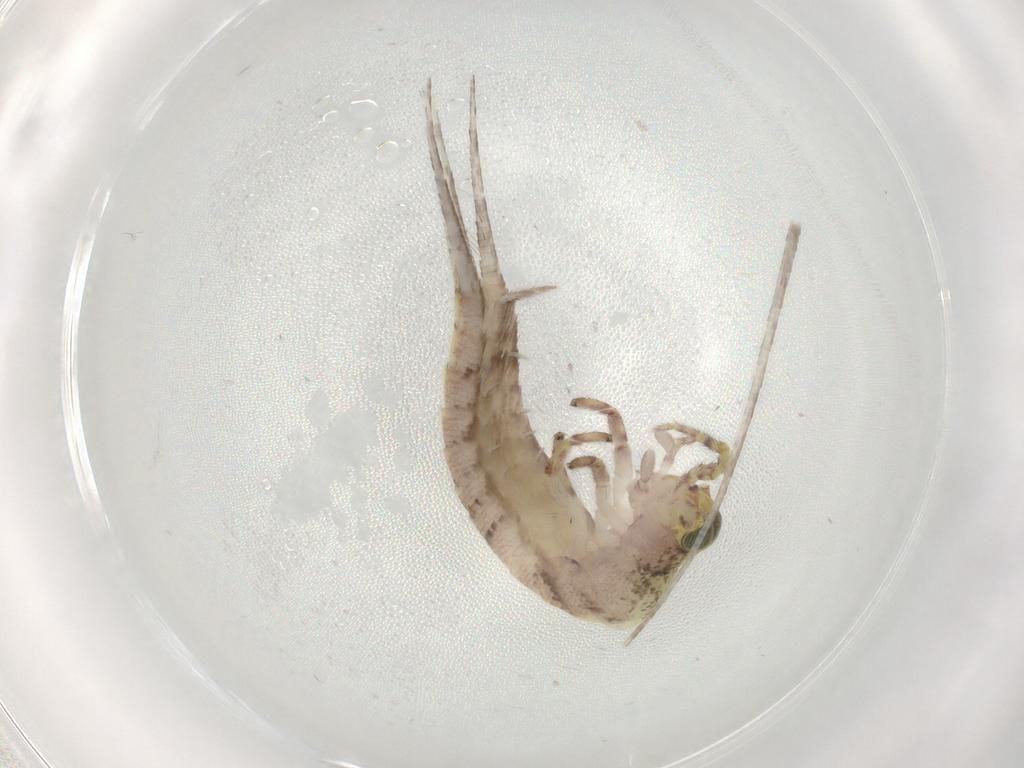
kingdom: Animalia
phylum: Arthropoda
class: Insecta
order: Archaeognatha
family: Machilidae
